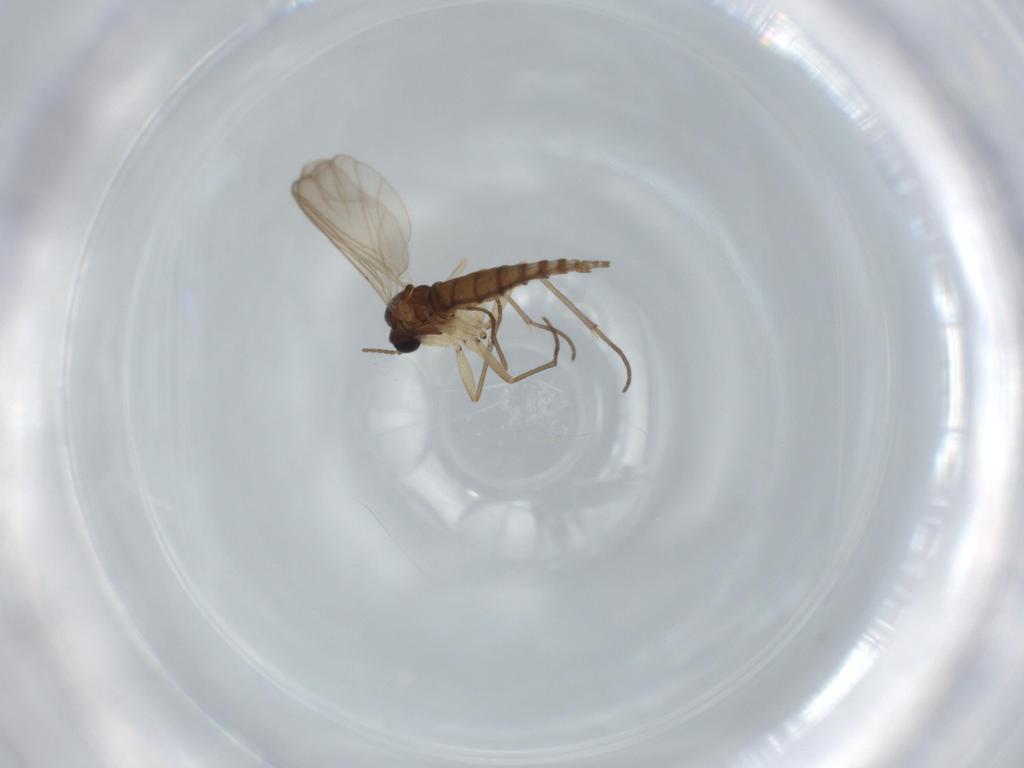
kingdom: Animalia
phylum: Arthropoda
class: Insecta
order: Diptera
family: Sciaridae
